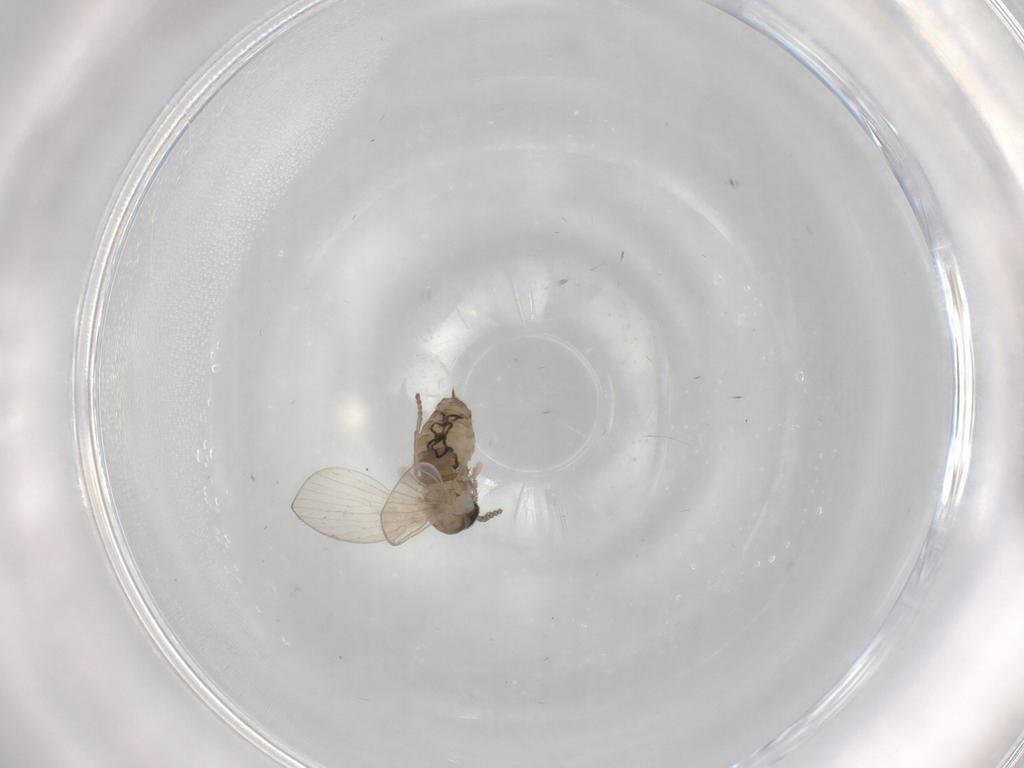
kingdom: Animalia
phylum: Arthropoda
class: Insecta
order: Diptera
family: Psychodidae
